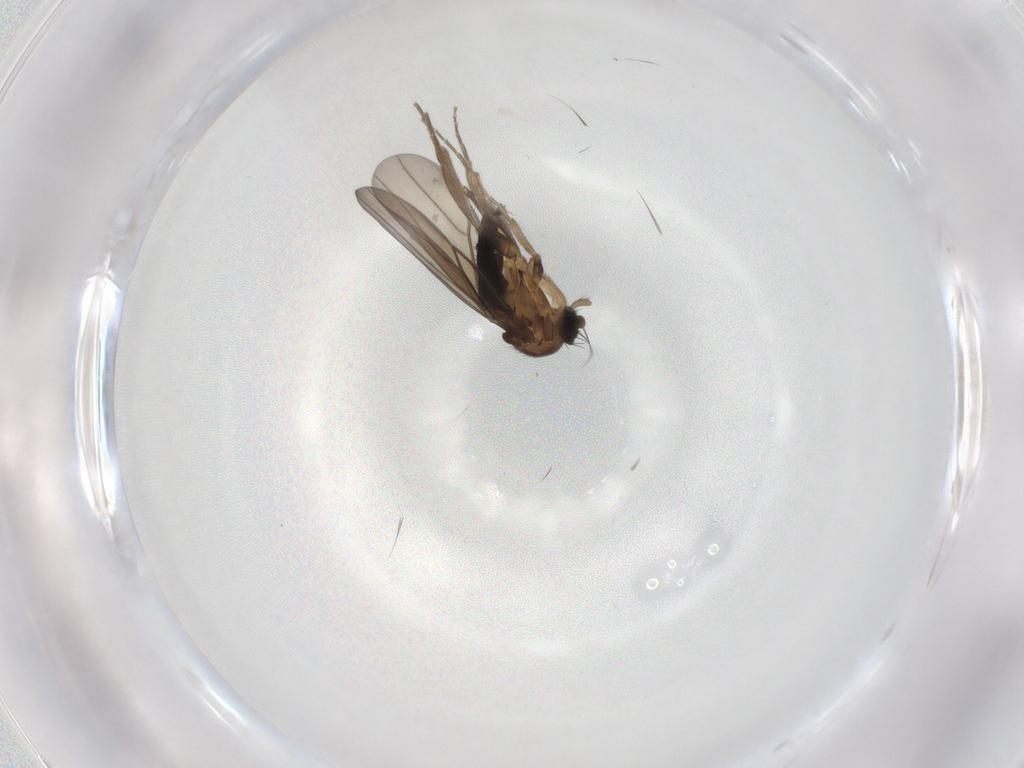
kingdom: Animalia
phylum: Arthropoda
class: Insecta
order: Diptera
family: Phoridae
